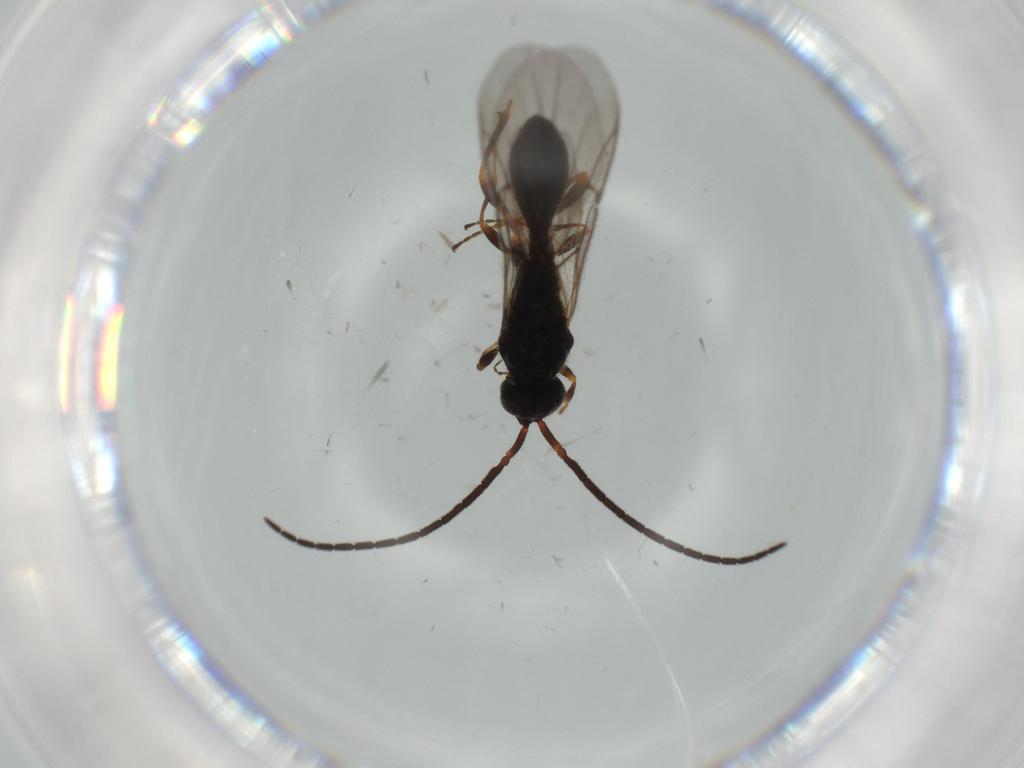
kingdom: Animalia
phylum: Arthropoda
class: Insecta
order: Hymenoptera
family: Diapriidae
